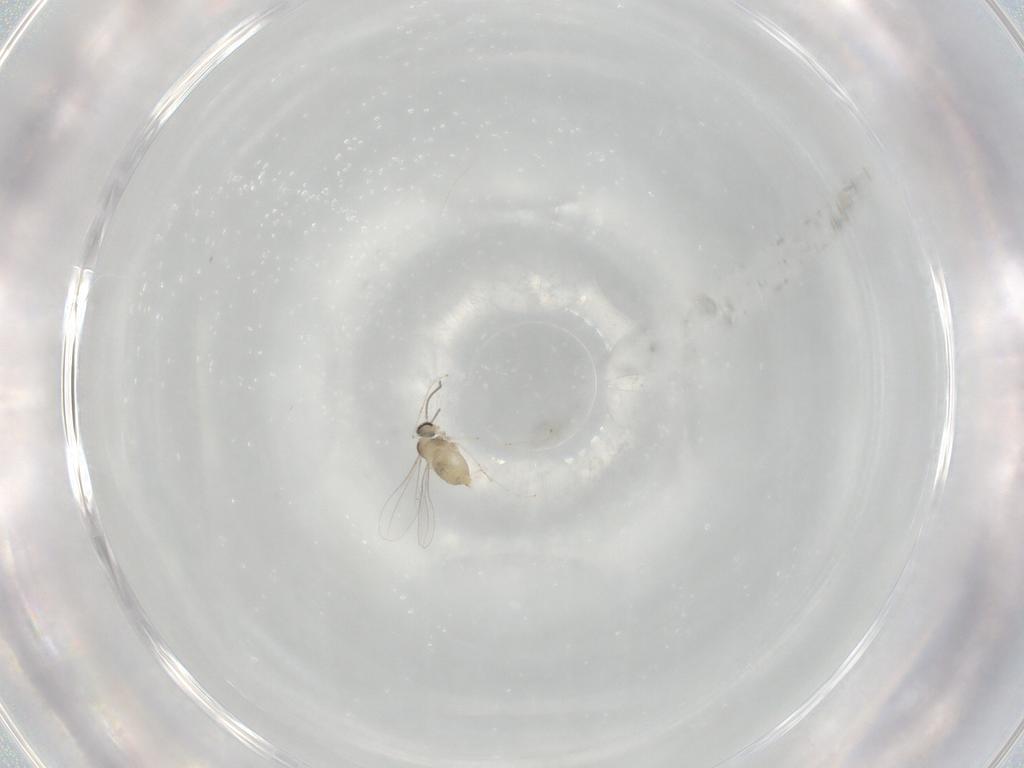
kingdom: Animalia
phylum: Arthropoda
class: Insecta
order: Diptera
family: Cecidomyiidae
